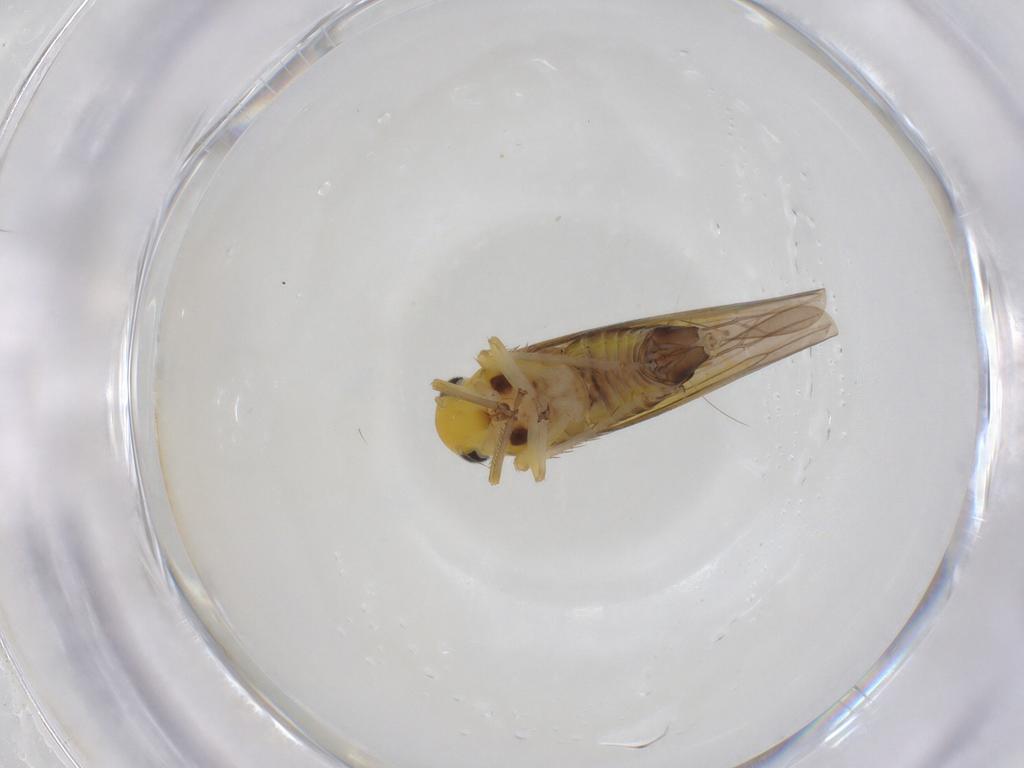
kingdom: Animalia
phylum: Arthropoda
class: Insecta
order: Hemiptera
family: Cicadellidae
